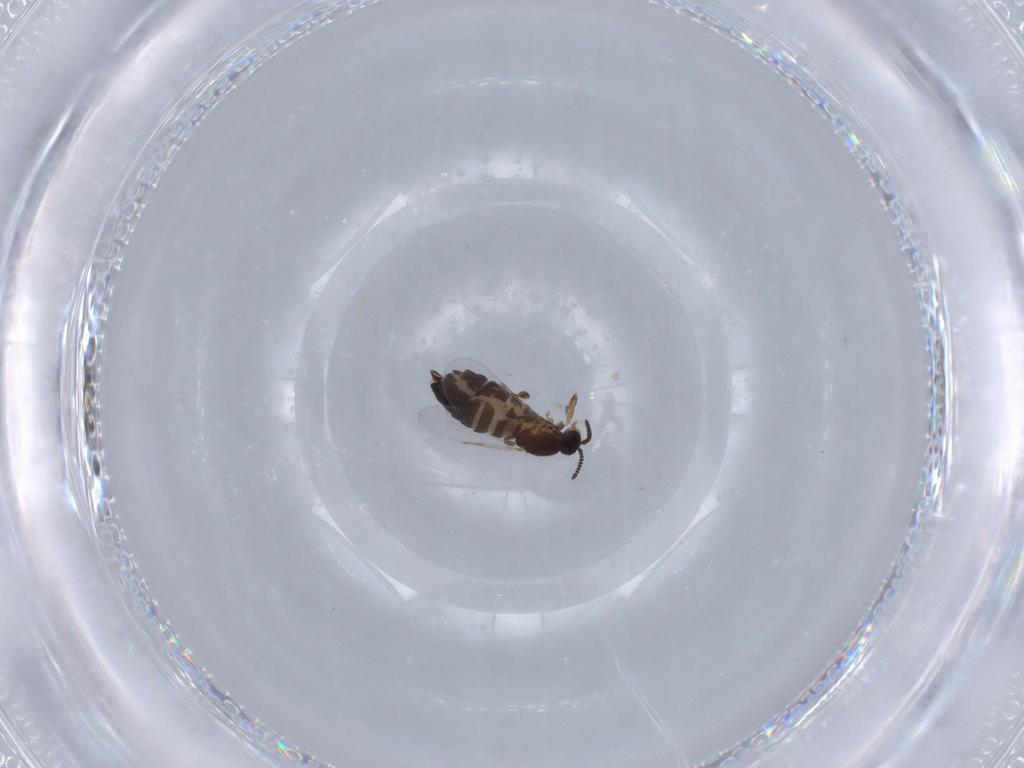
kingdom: Animalia
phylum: Arthropoda
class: Insecta
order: Diptera
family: Scatopsidae
